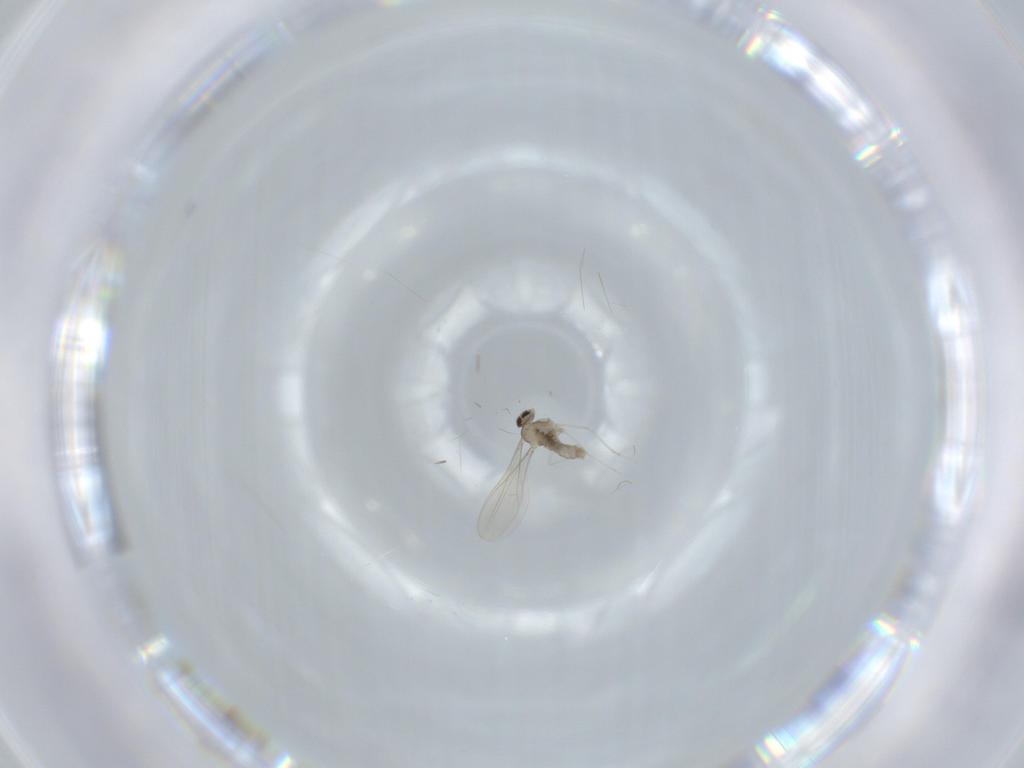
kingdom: Animalia
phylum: Arthropoda
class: Insecta
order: Diptera
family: Cecidomyiidae
